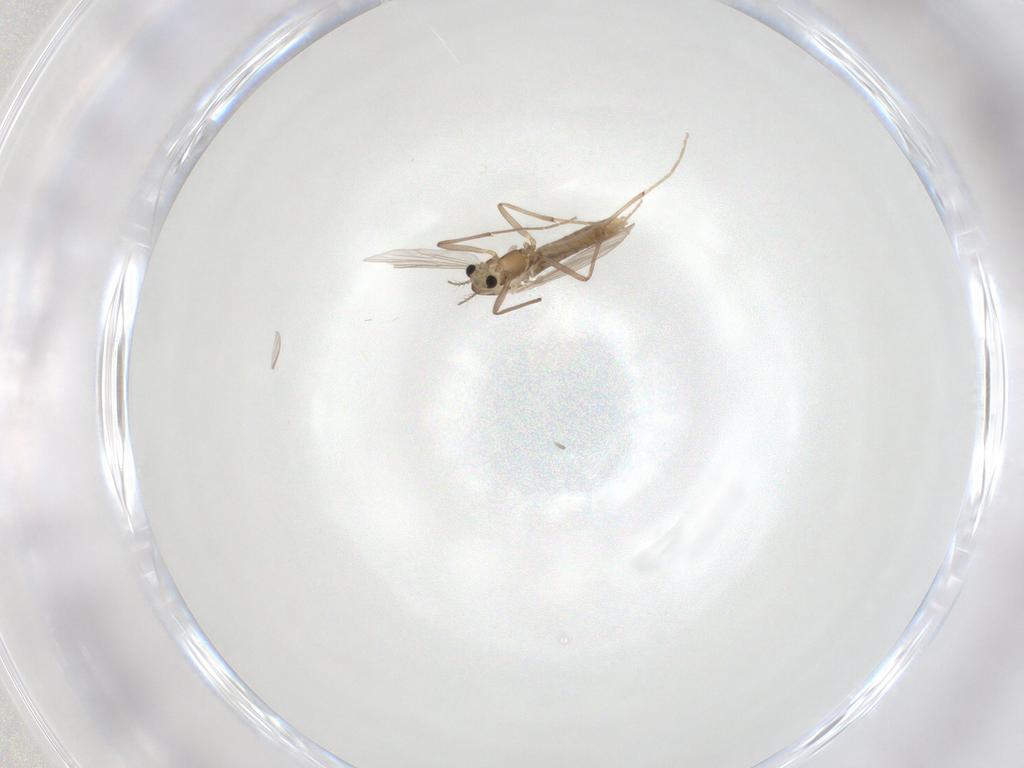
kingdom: Animalia
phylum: Arthropoda
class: Insecta
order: Diptera
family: Chironomidae
